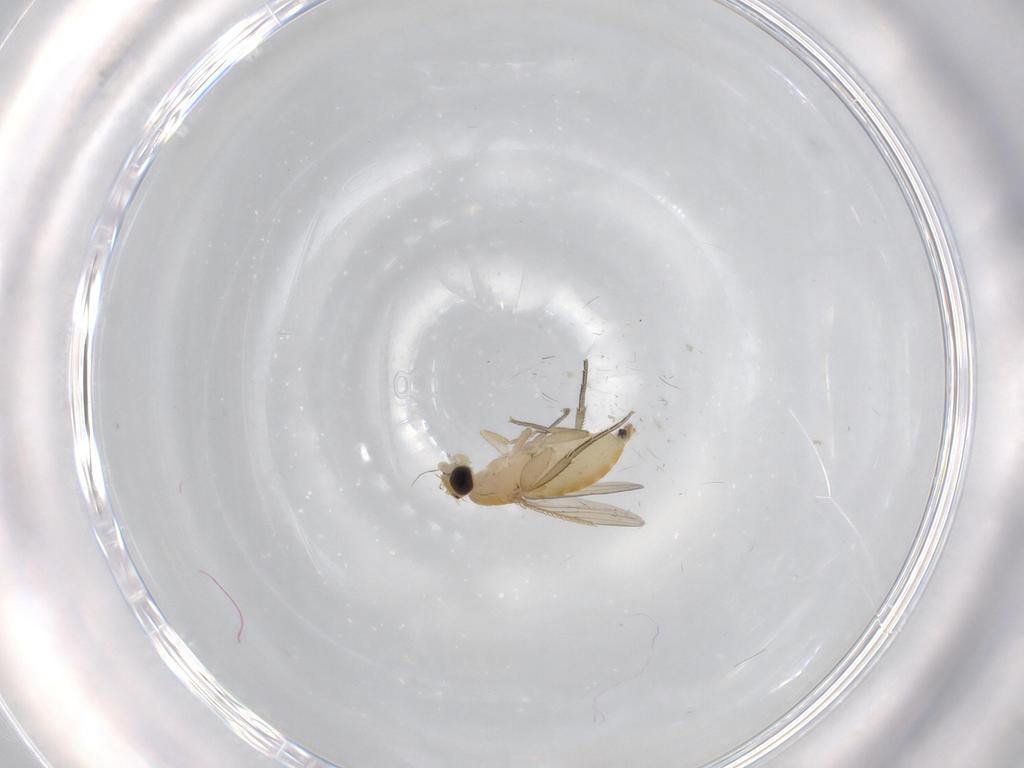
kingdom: Animalia
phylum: Arthropoda
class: Insecta
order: Diptera
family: Phoridae
